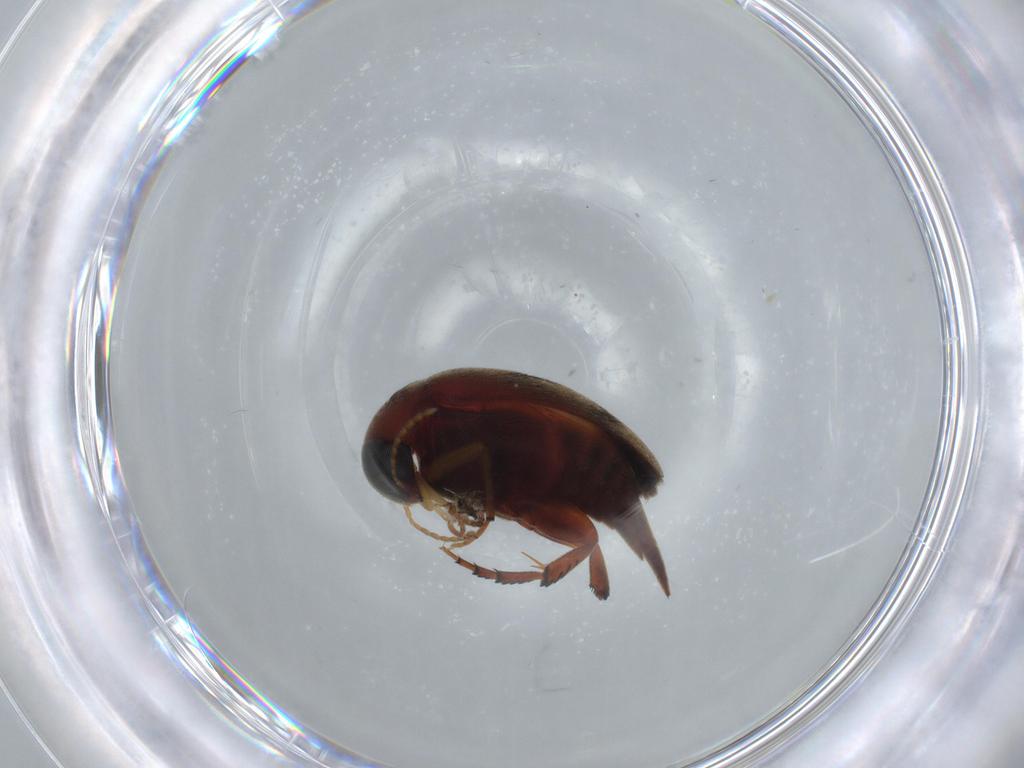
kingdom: Animalia
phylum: Arthropoda
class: Insecta
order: Coleoptera
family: Mordellidae
